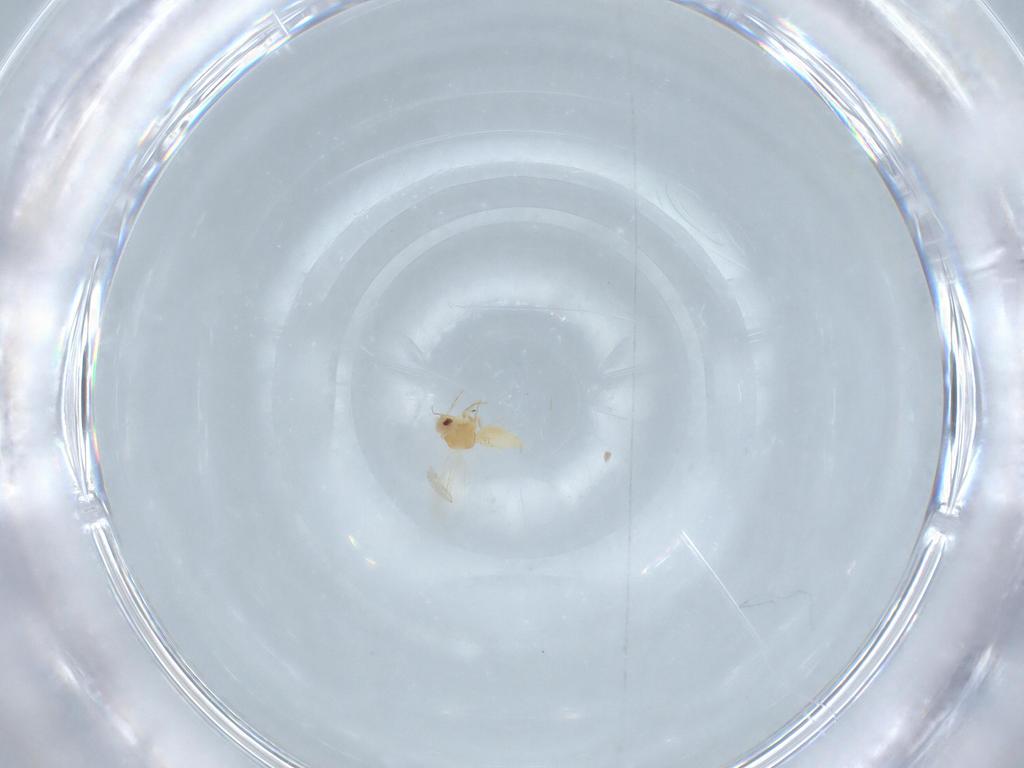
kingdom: Animalia
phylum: Arthropoda
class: Insecta
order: Hemiptera
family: Aleyrodidae
